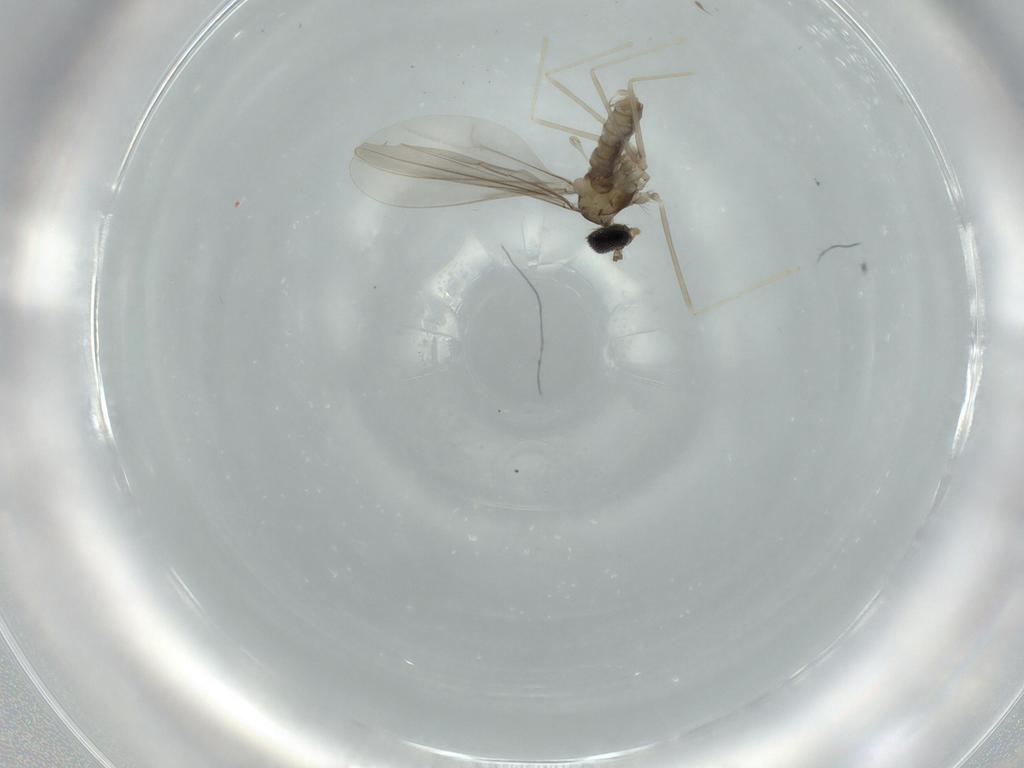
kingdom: Animalia
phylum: Arthropoda
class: Insecta
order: Diptera
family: Cecidomyiidae
